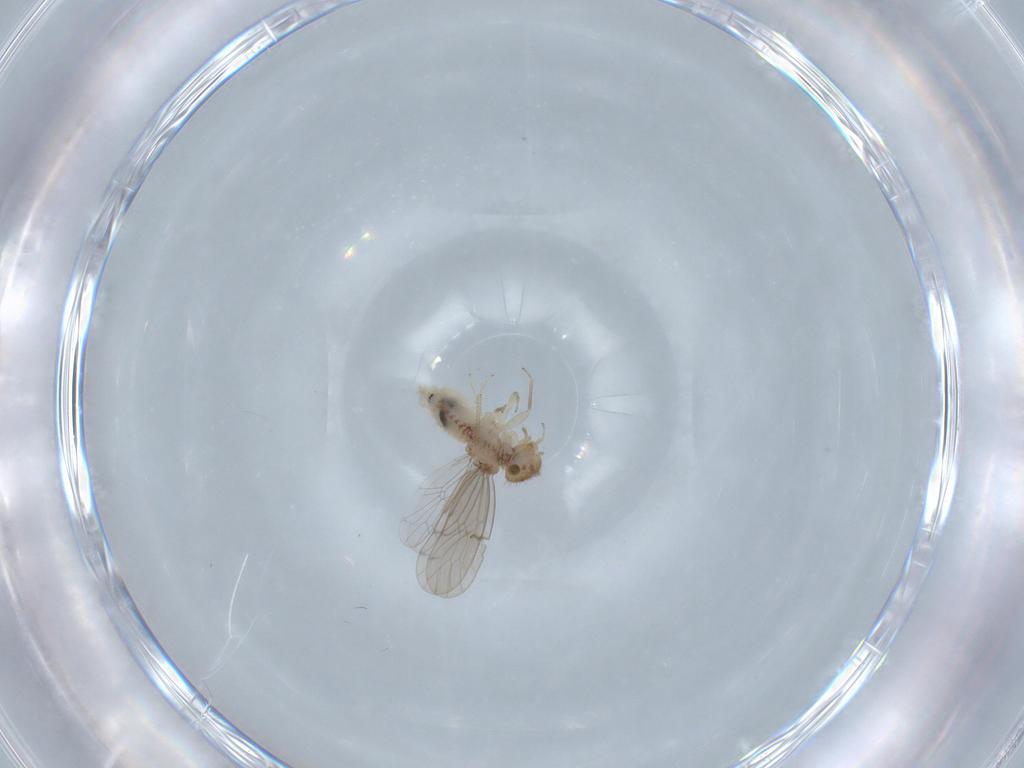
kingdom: Animalia
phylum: Arthropoda
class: Insecta
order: Psocodea
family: Ectopsocidae
